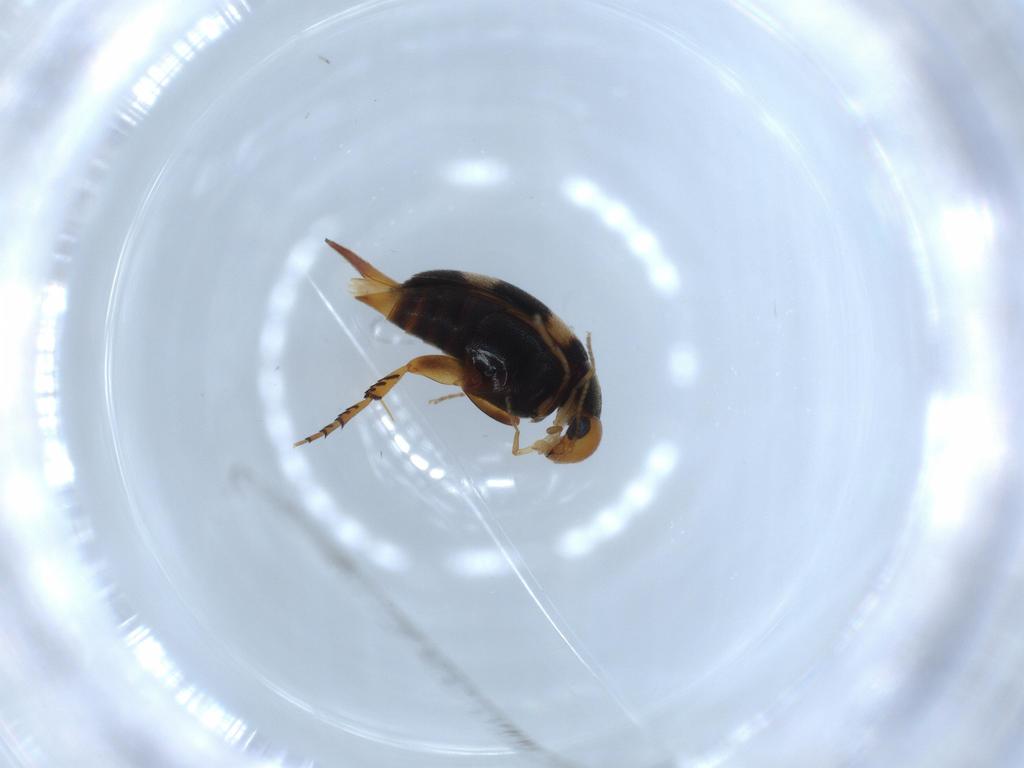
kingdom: Animalia
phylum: Arthropoda
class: Insecta
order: Coleoptera
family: Mordellidae
